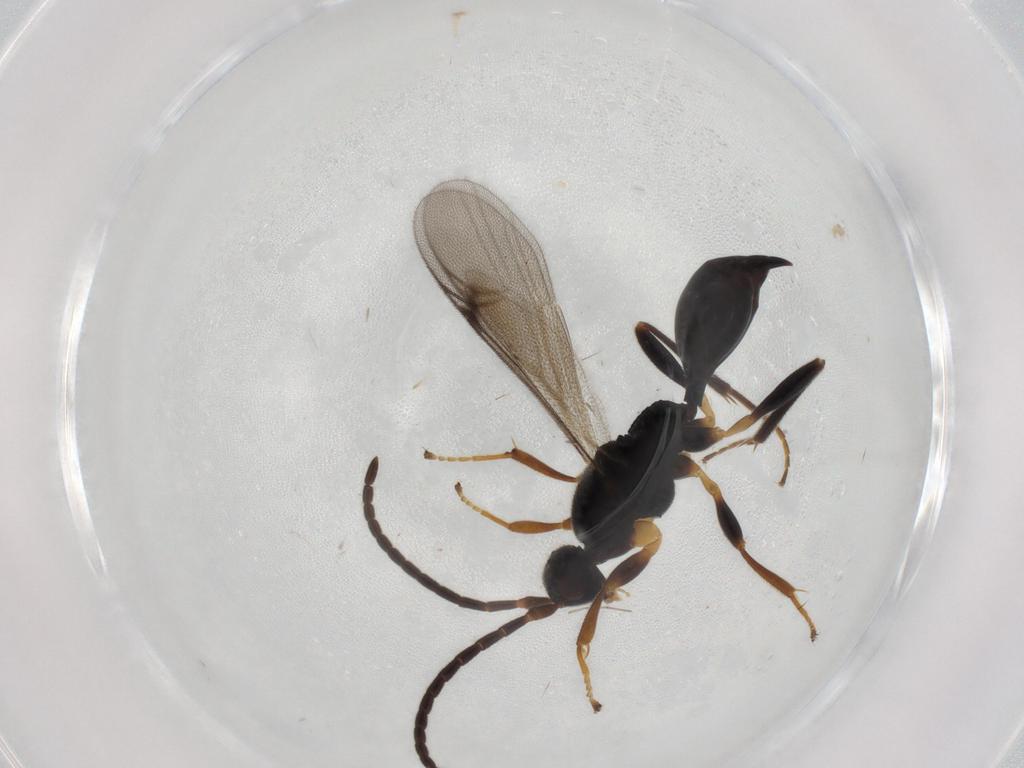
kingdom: Animalia
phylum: Arthropoda
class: Insecta
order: Hymenoptera
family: Proctotrupidae
